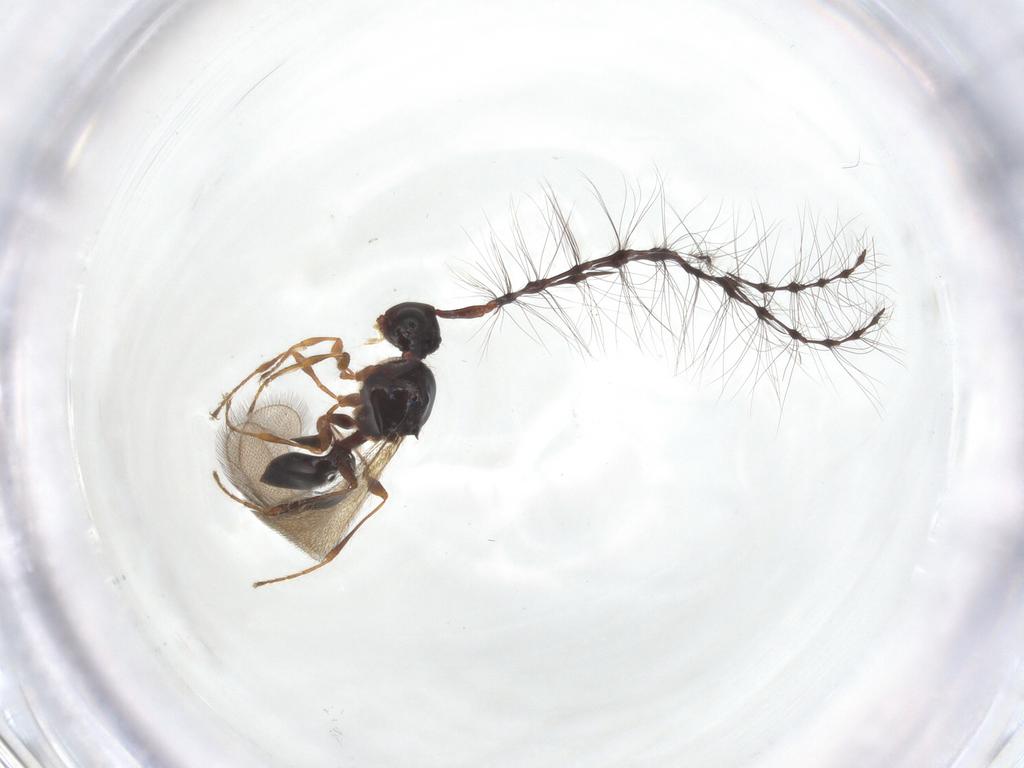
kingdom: Animalia
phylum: Arthropoda
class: Insecta
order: Hymenoptera
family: Diapriidae
